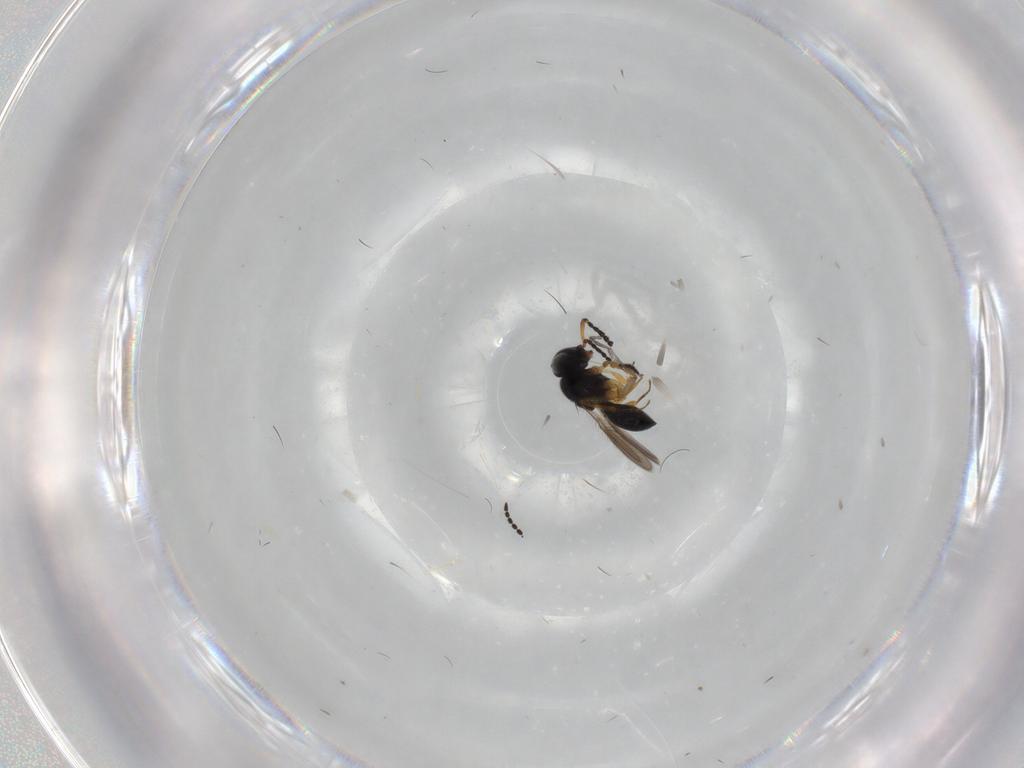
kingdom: Animalia
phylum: Arthropoda
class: Insecta
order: Hymenoptera
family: Scelionidae
